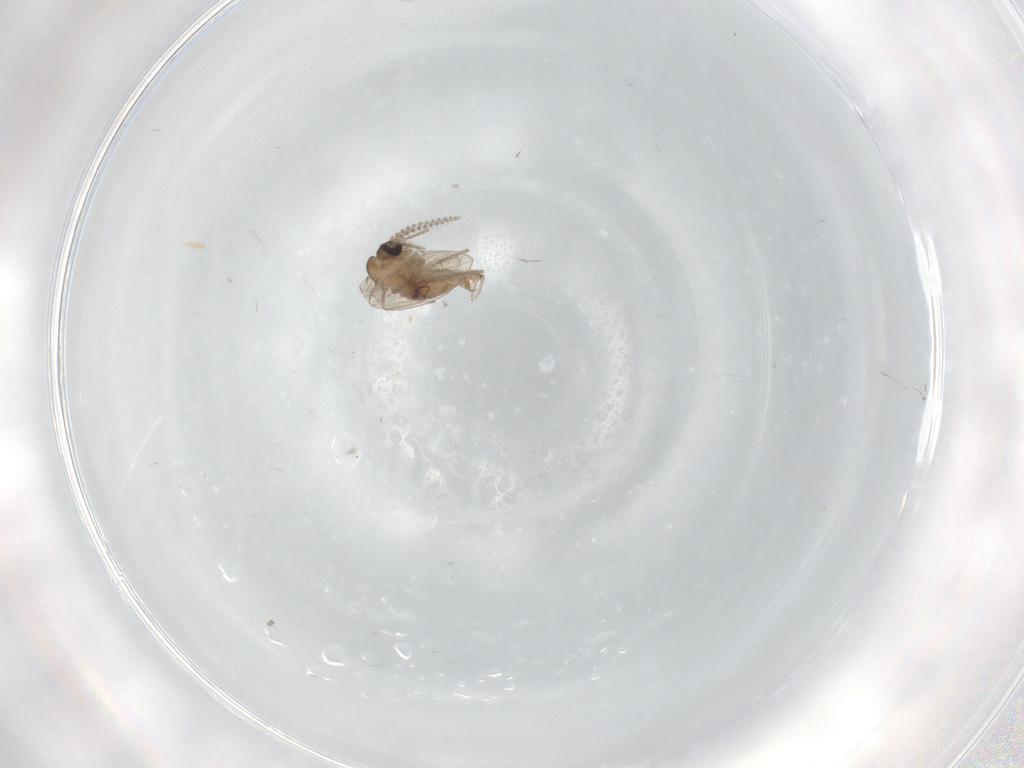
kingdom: Animalia
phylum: Arthropoda
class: Insecta
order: Diptera
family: Psychodidae
